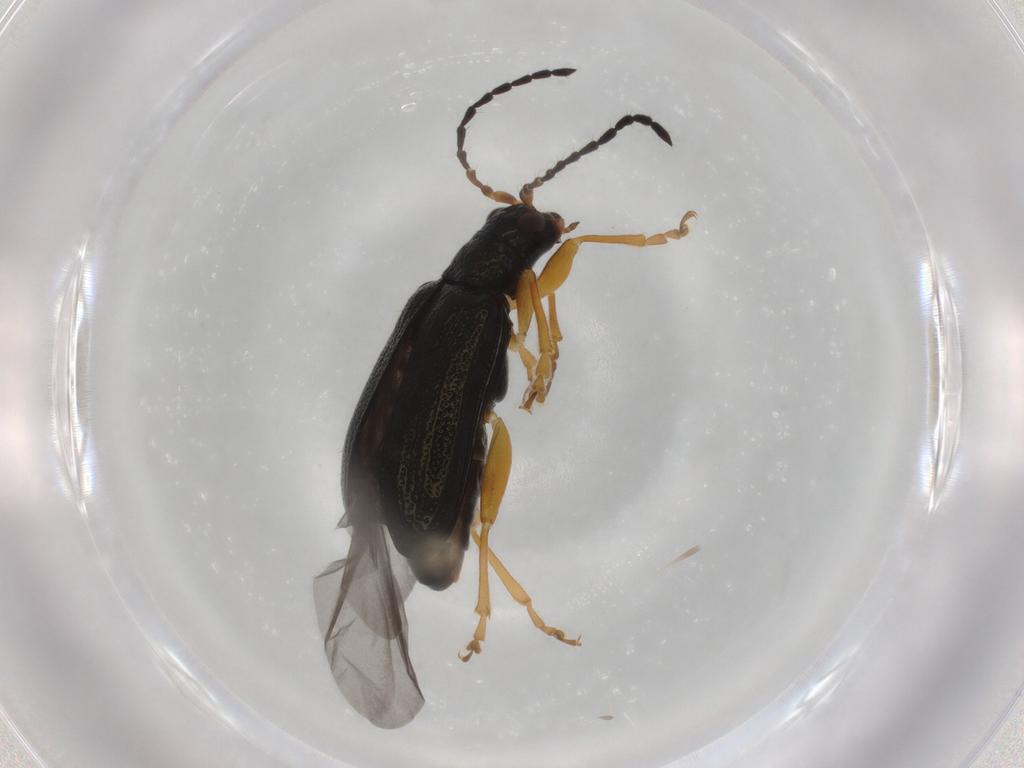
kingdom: Animalia
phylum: Arthropoda
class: Insecta
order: Coleoptera
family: Chrysomelidae
